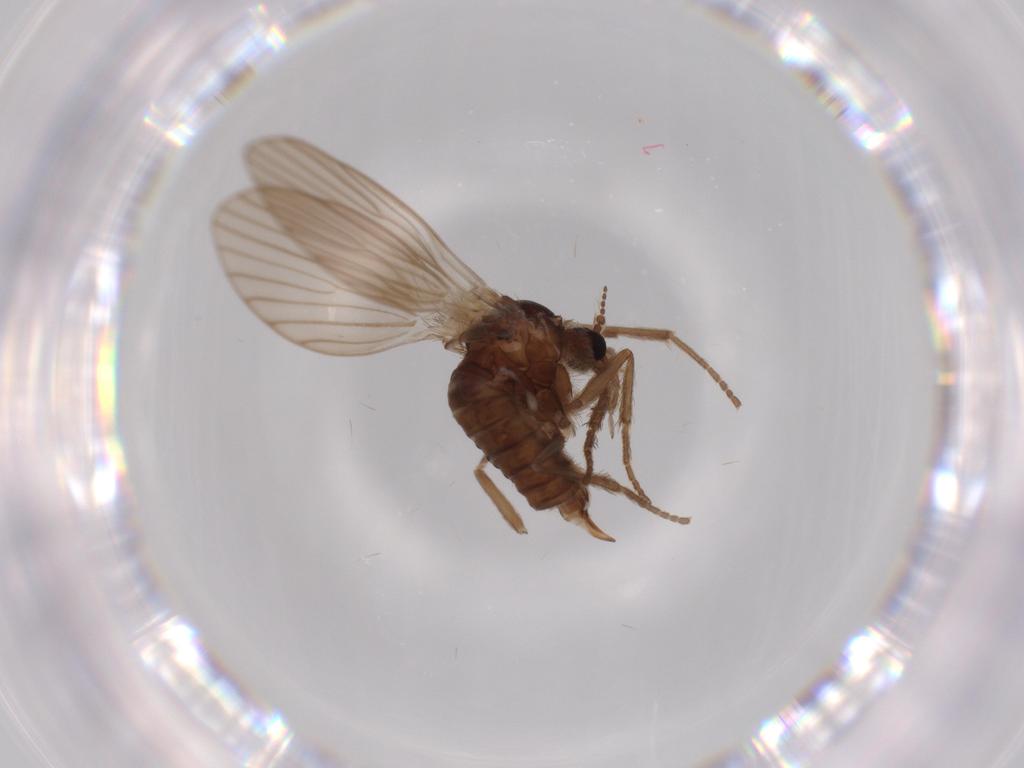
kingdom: Animalia
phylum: Arthropoda
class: Insecta
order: Diptera
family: Psychodidae
